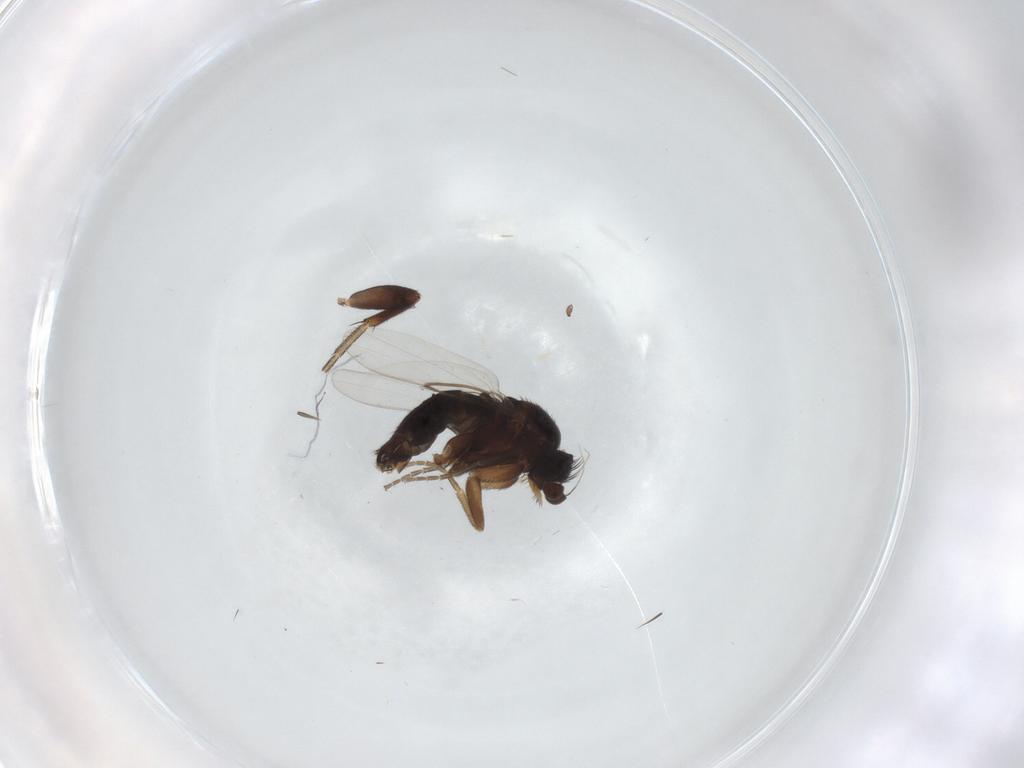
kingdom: Animalia
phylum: Arthropoda
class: Insecta
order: Diptera
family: Phoridae
